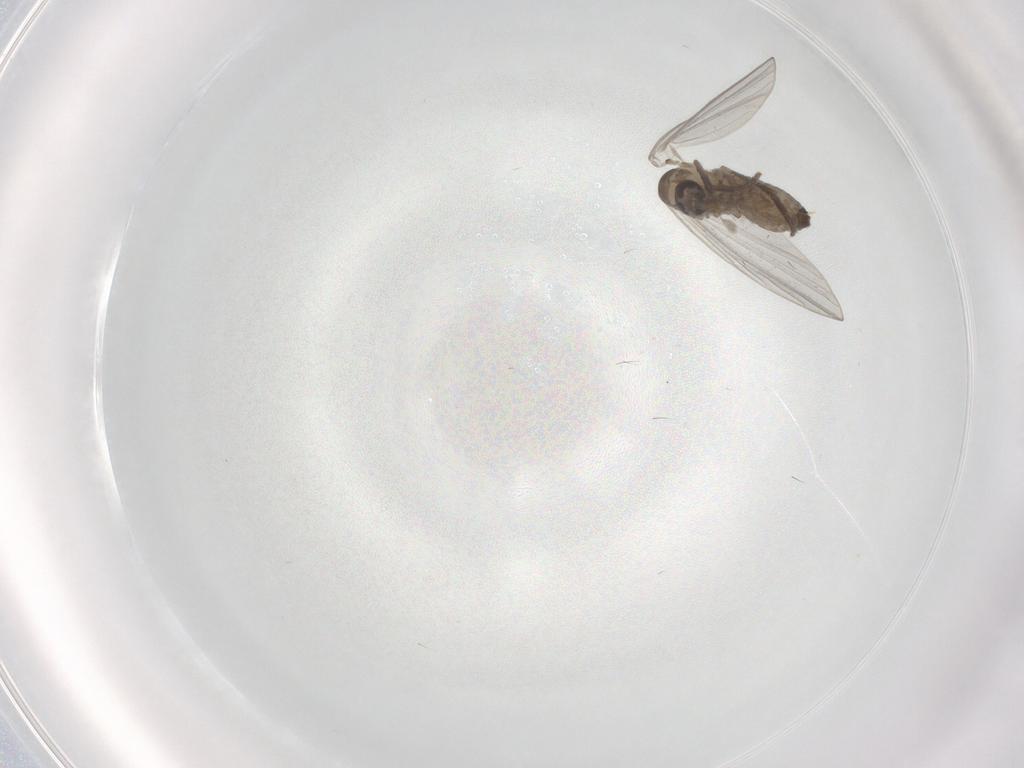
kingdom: Animalia
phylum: Arthropoda
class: Insecta
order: Diptera
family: Psychodidae
